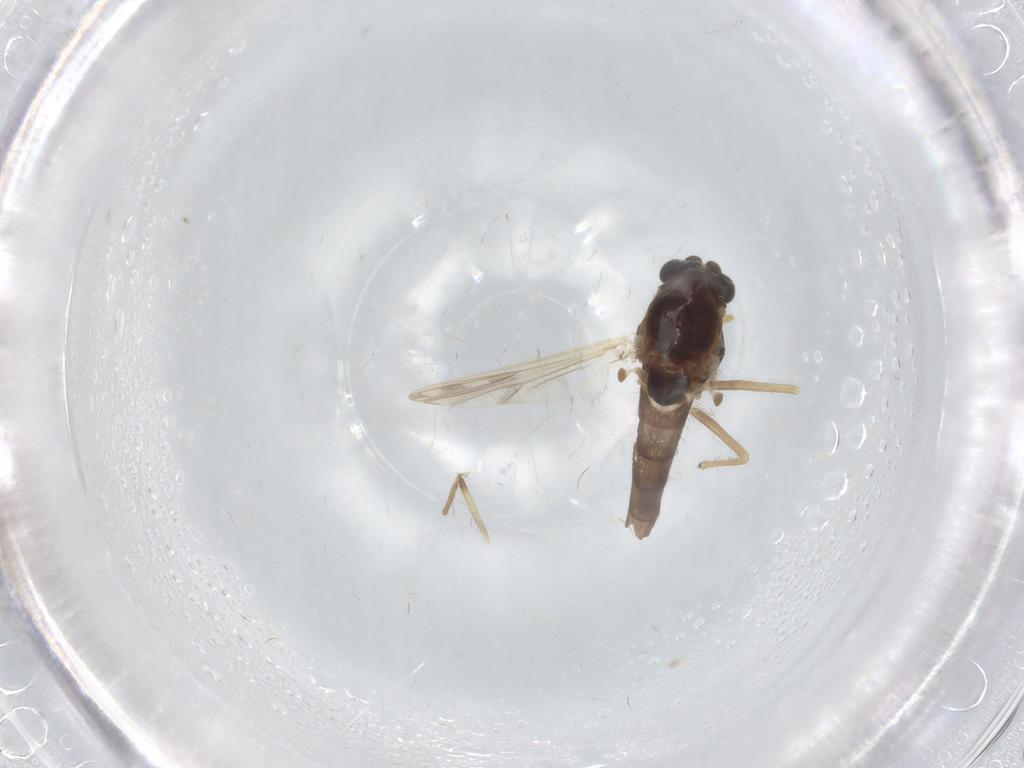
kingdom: Animalia
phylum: Arthropoda
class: Insecta
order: Diptera
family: Chironomidae
